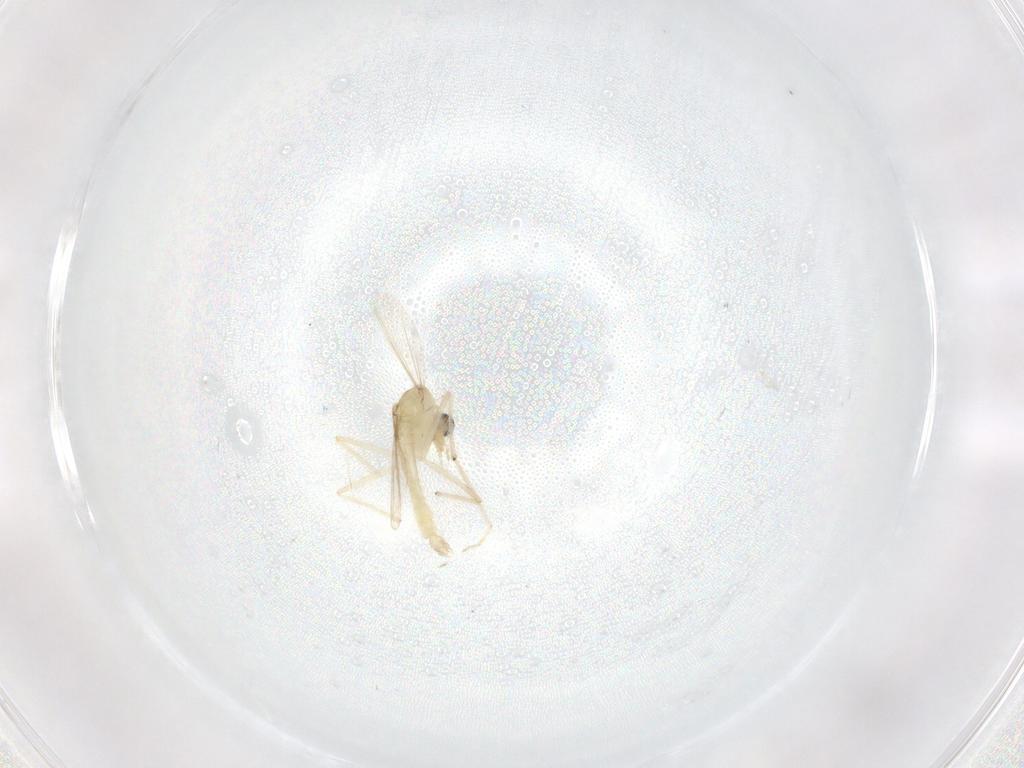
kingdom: Animalia
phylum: Arthropoda
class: Insecta
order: Diptera
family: Chironomidae
